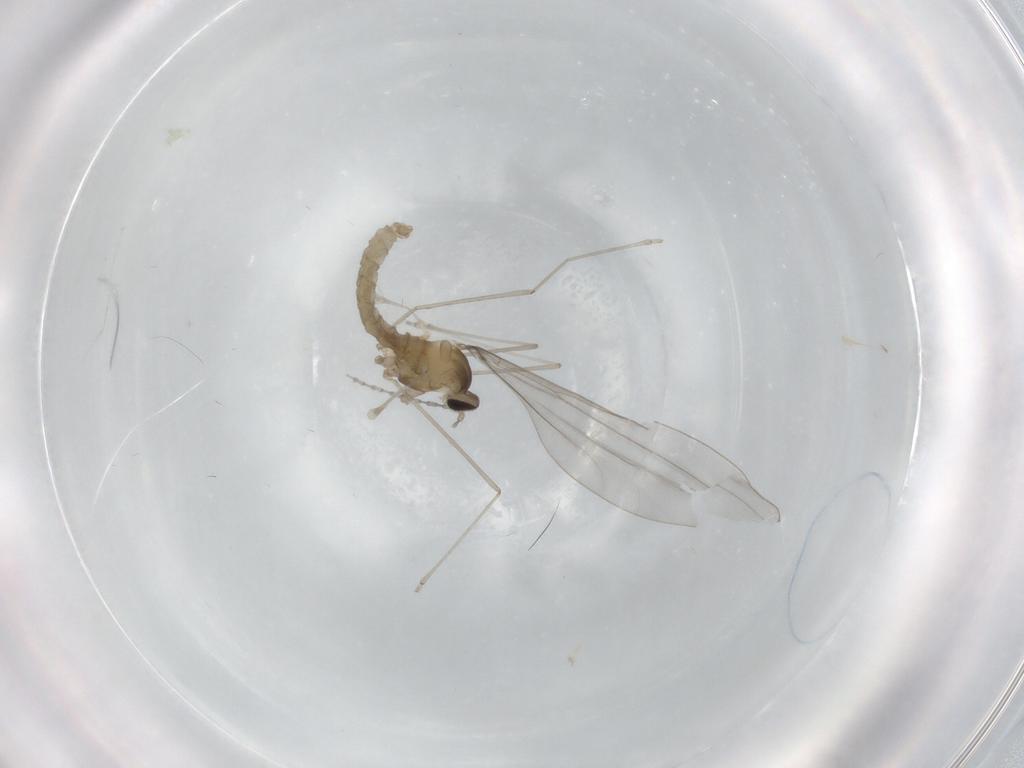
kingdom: Animalia
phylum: Arthropoda
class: Insecta
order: Diptera
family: Cecidomyiidae
